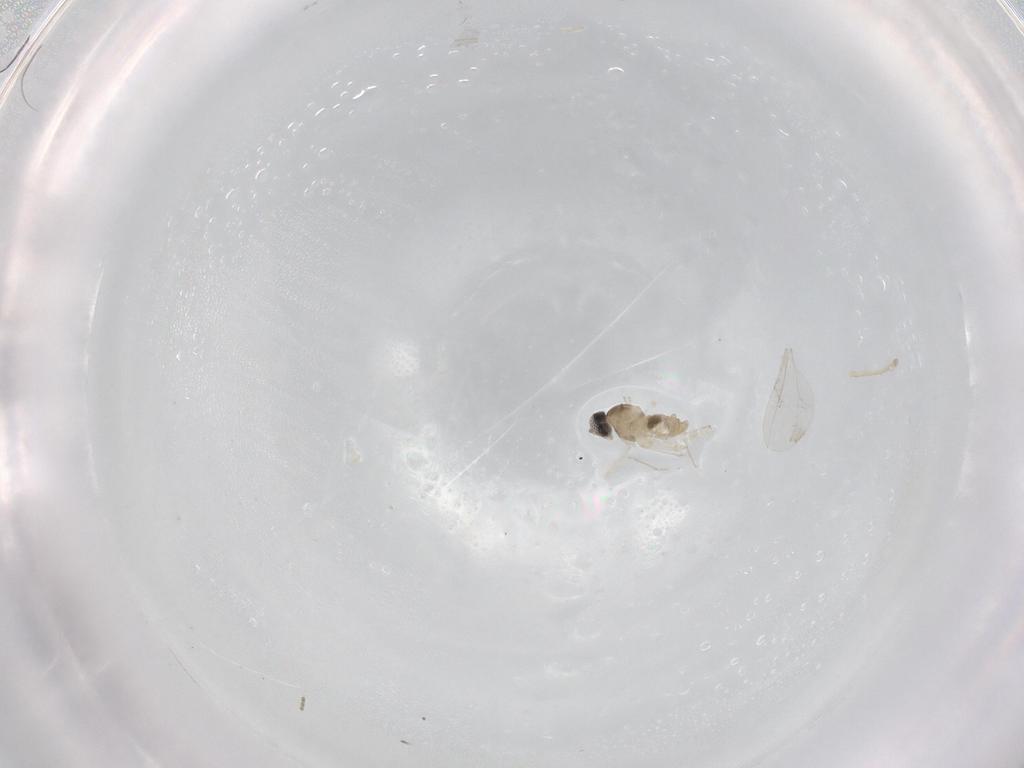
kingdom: Animalia
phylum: Arthropoda
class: Insecta
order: Diptera
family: Cecidomyiidae
